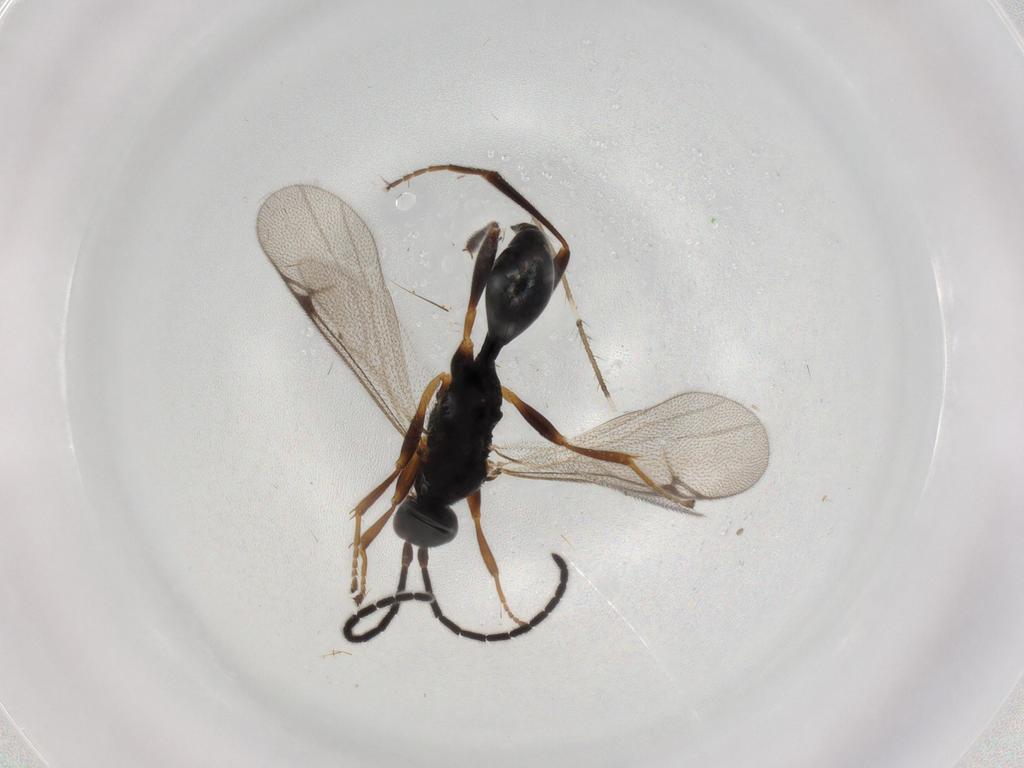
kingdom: Animalia
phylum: Arthropoda
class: Insecta
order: Hymenoptera
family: Proctotrupidae
